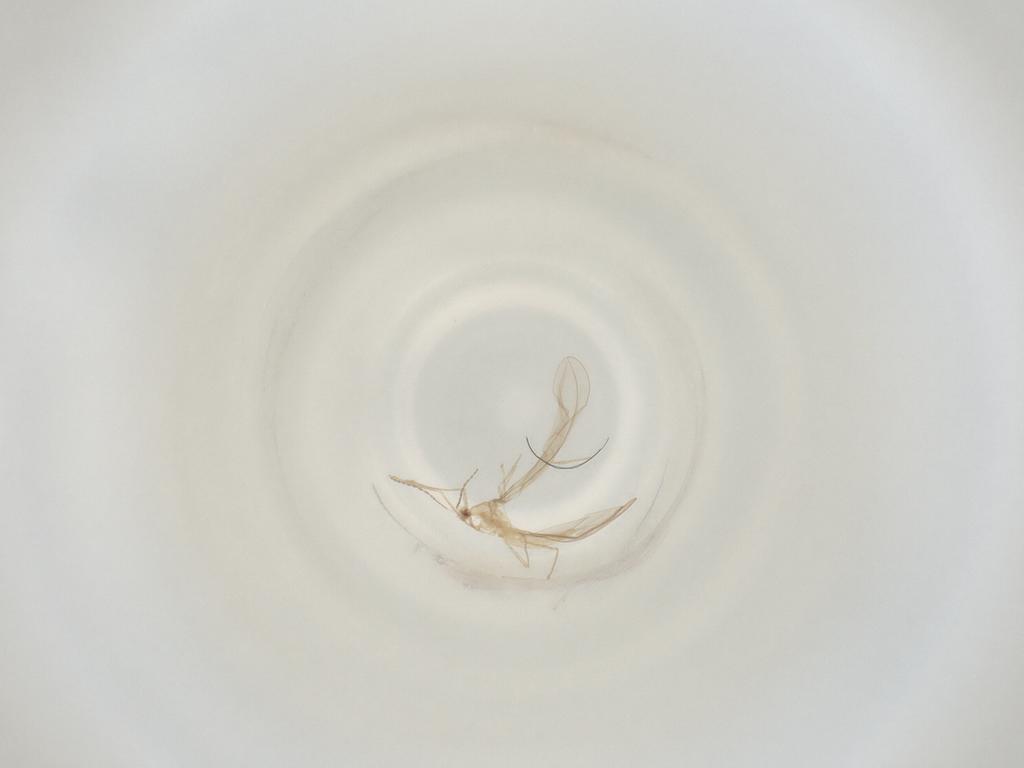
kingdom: Animalia
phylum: Arthropoda
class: Insecta
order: Diptera
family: Cecidomyiidae
